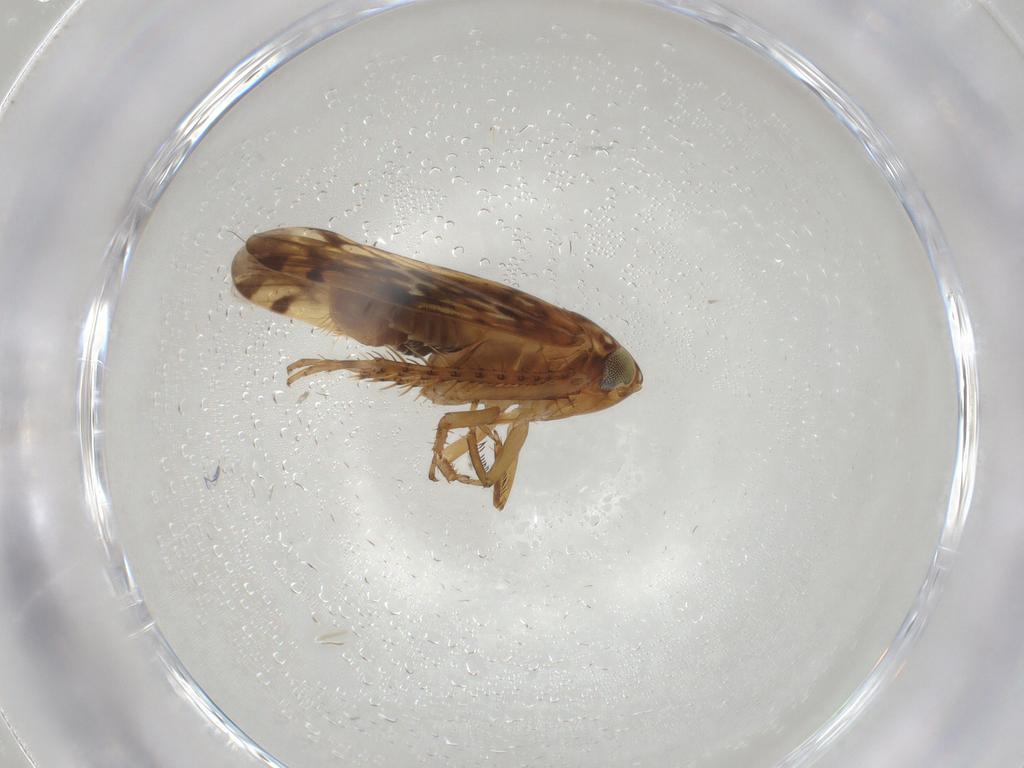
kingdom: Animalia
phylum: Arthropoda
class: Insecta
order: Hemiptera
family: Cicadellidae
